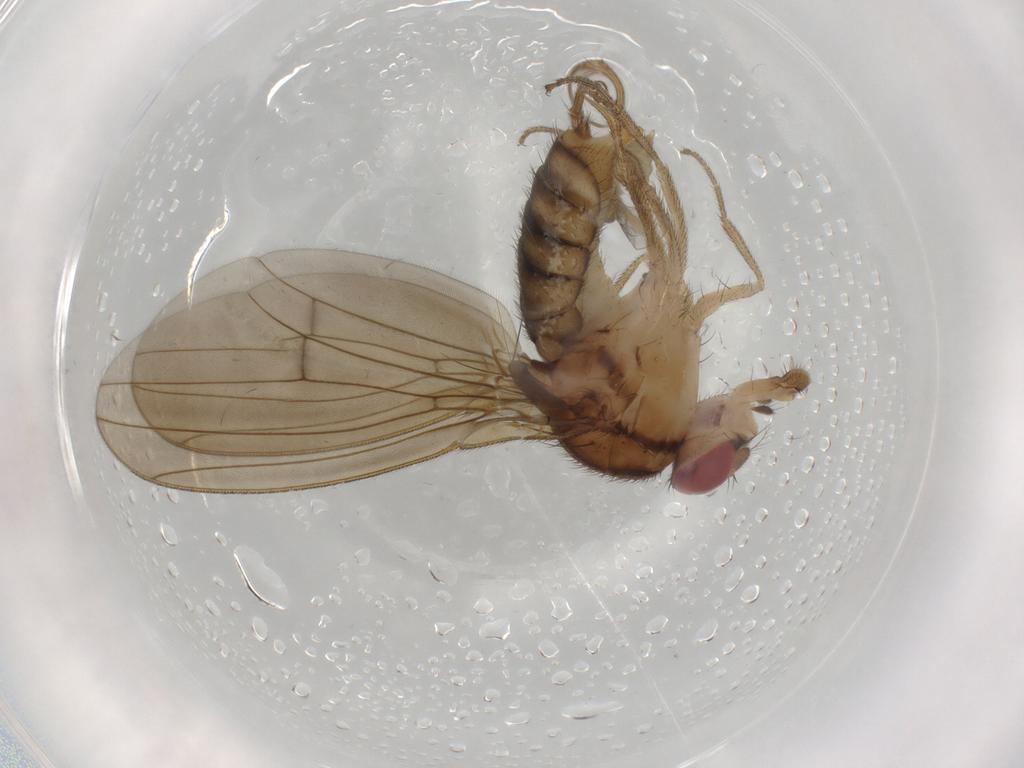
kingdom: Animalia
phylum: Arthropoda
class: Insecta
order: Diptera
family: Drosophilidae
